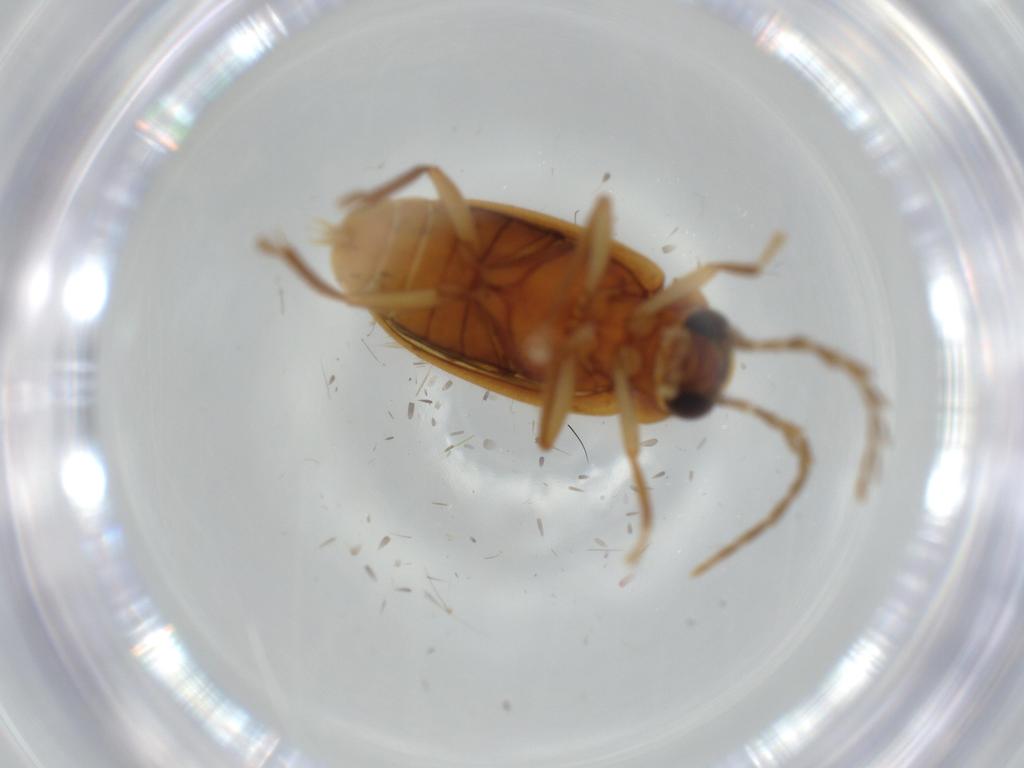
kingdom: Animalia
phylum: Arthropoda
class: Insecta
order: Coleoptera
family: Ptilodactylidae
